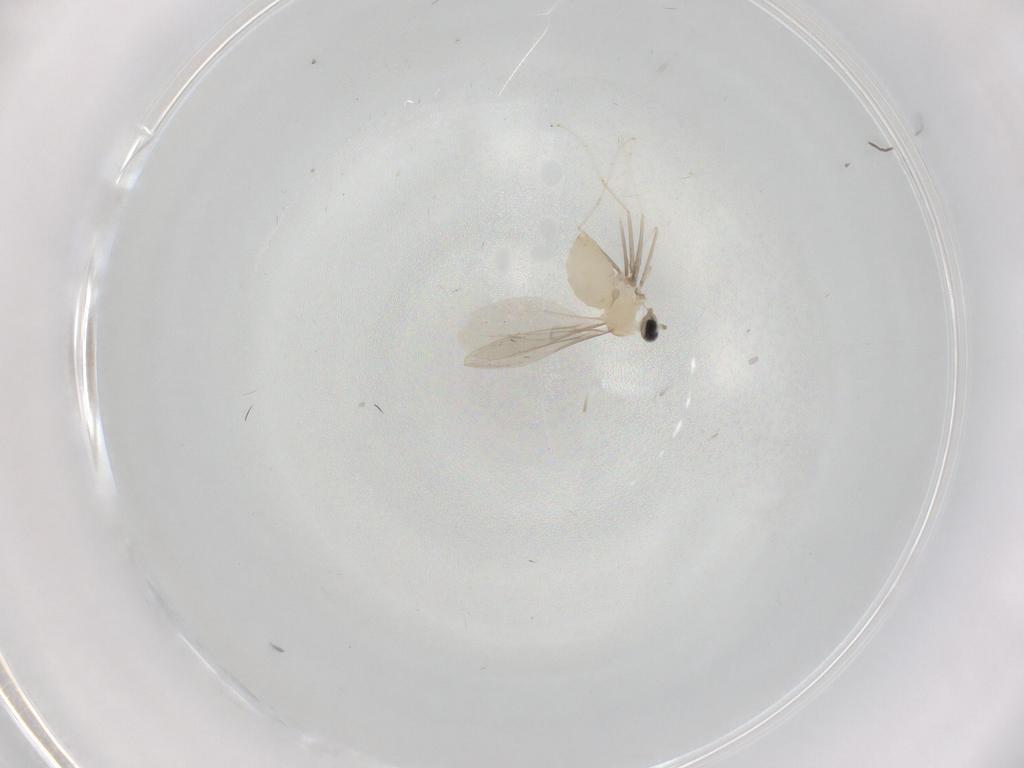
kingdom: Animalia
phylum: Arthropoda
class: Insecta
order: Diptera
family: Cecidomyiidae
